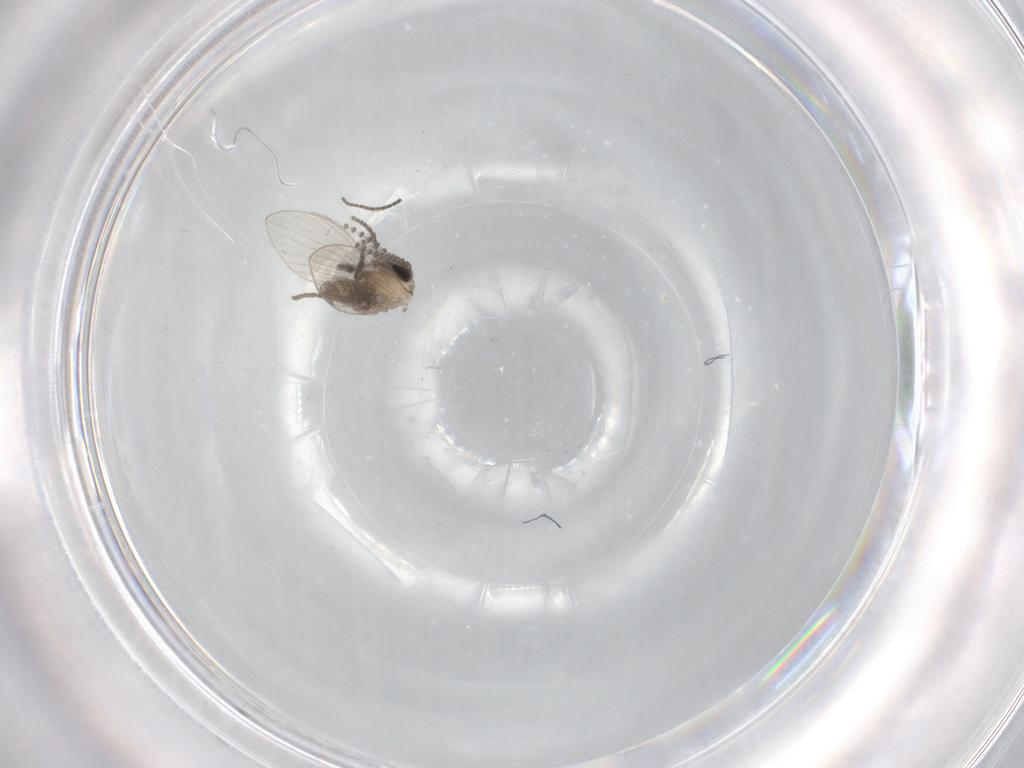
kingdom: Animalia
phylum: Arthropoda
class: Insecta
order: Diptera
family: Psychodidae
